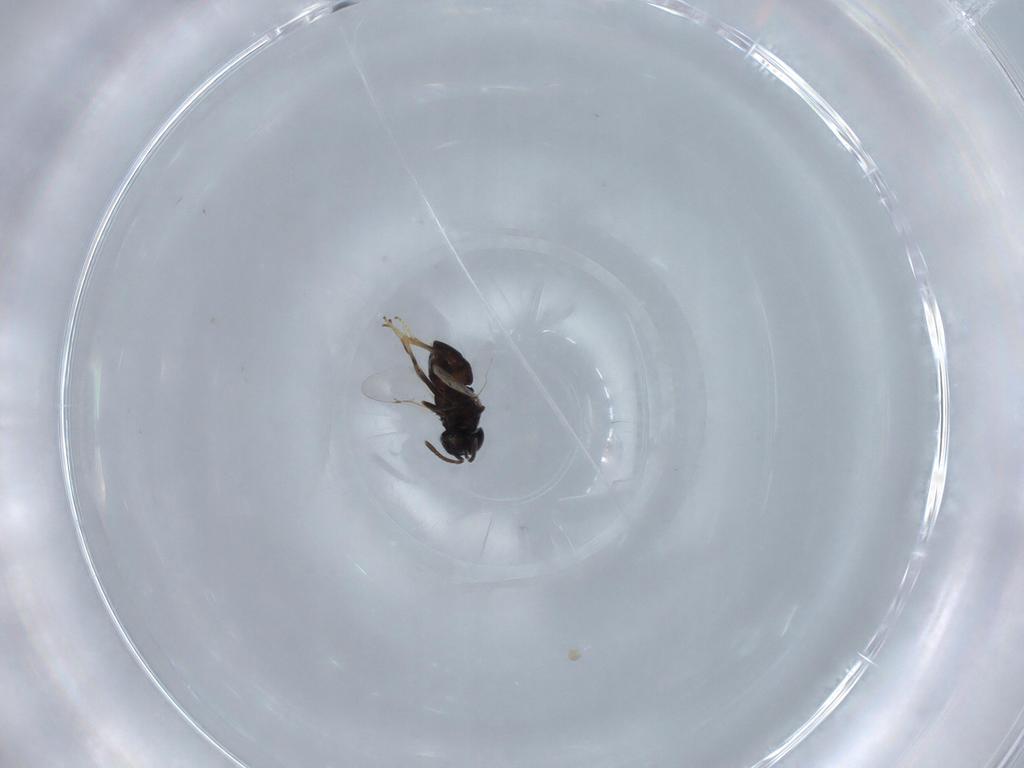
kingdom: Animalia
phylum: Arthropoda
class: Insecta
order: Hymenoptera
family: Encyrtidae
